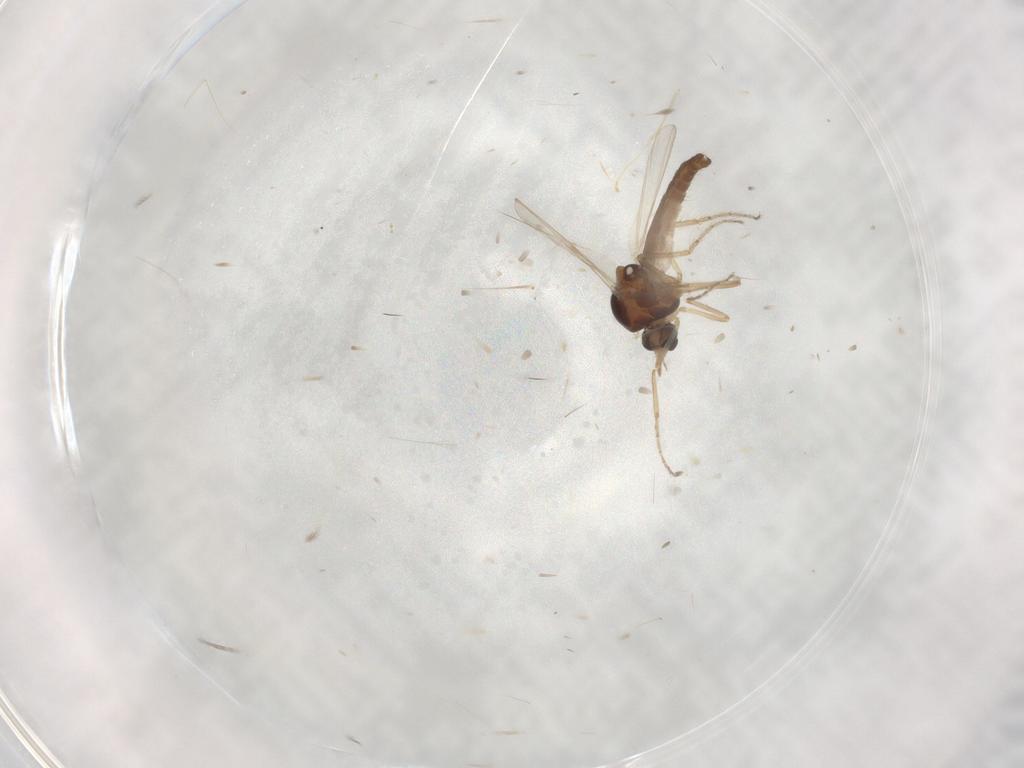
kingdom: Animalia
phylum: Arthropoda
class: Insecta
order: Diptera
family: Ceratopogonidae
